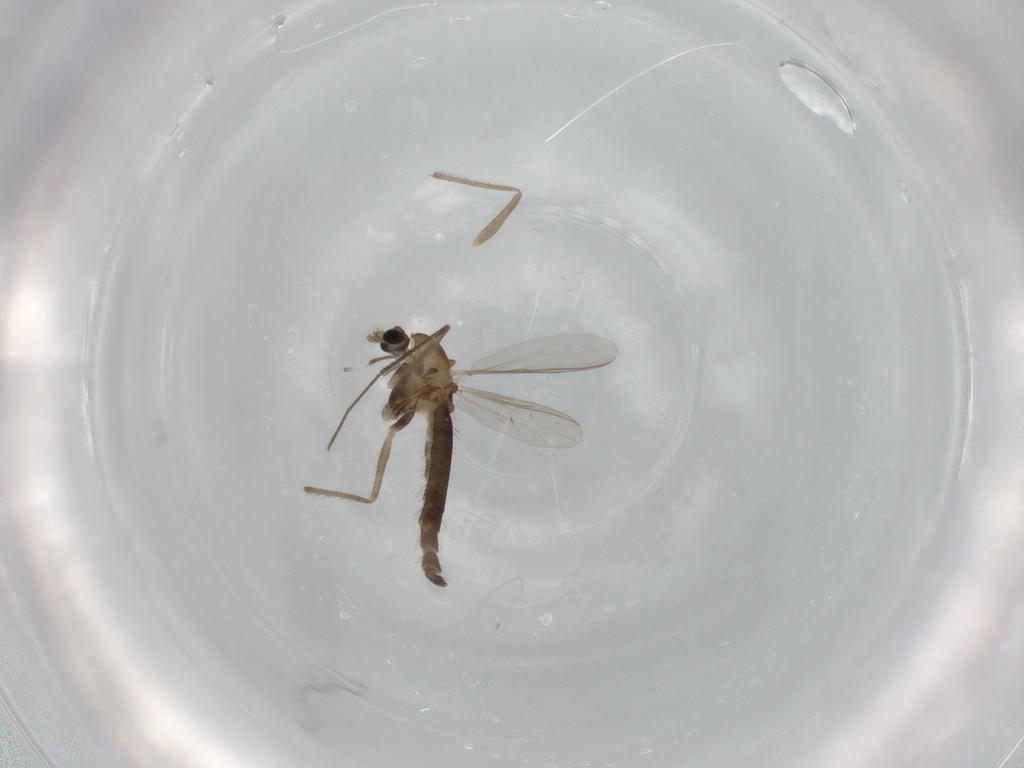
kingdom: Animalia
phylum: Arthropoda
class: Insecta
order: Diptera
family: Chironomidae
